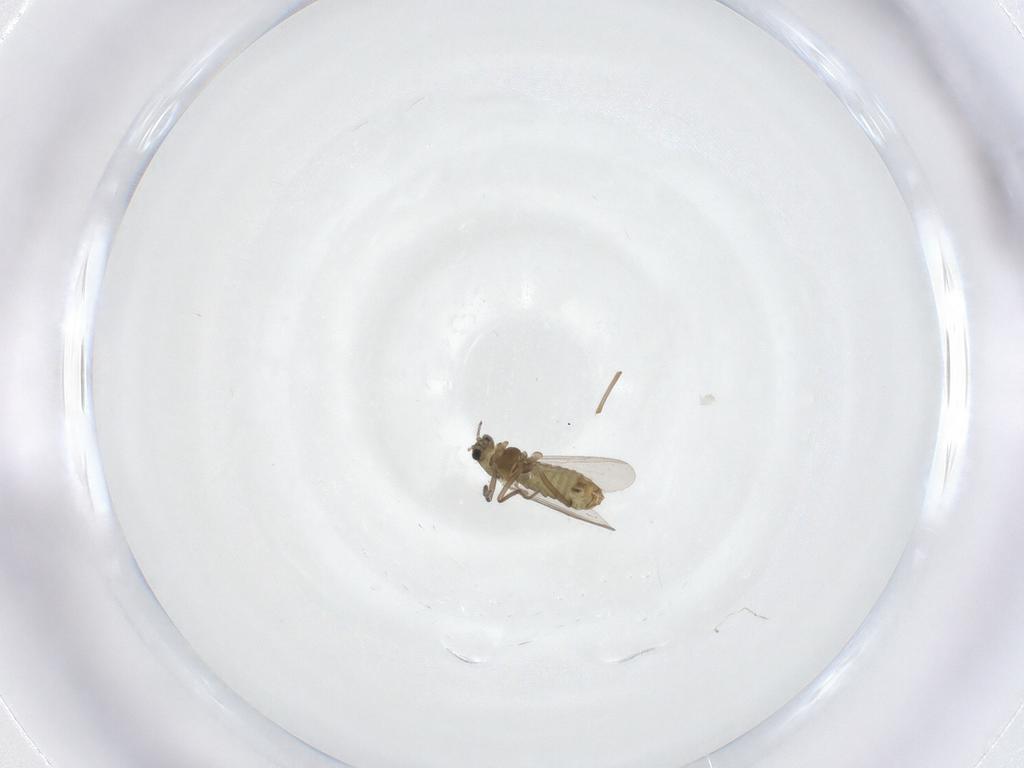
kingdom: Animalia
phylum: Arthropoda
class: Insecta
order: Diptera
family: Chironomidae
